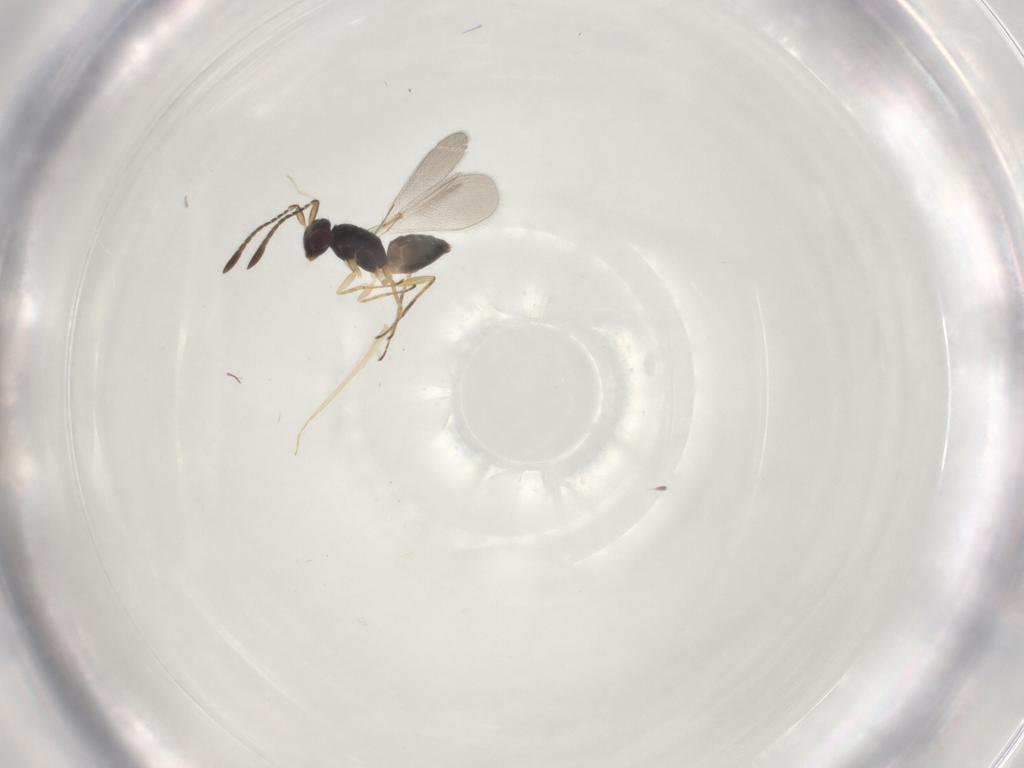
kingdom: Animalia
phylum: Arthropoda
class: Insecta
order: Hymenoptera
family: Mymaridae
